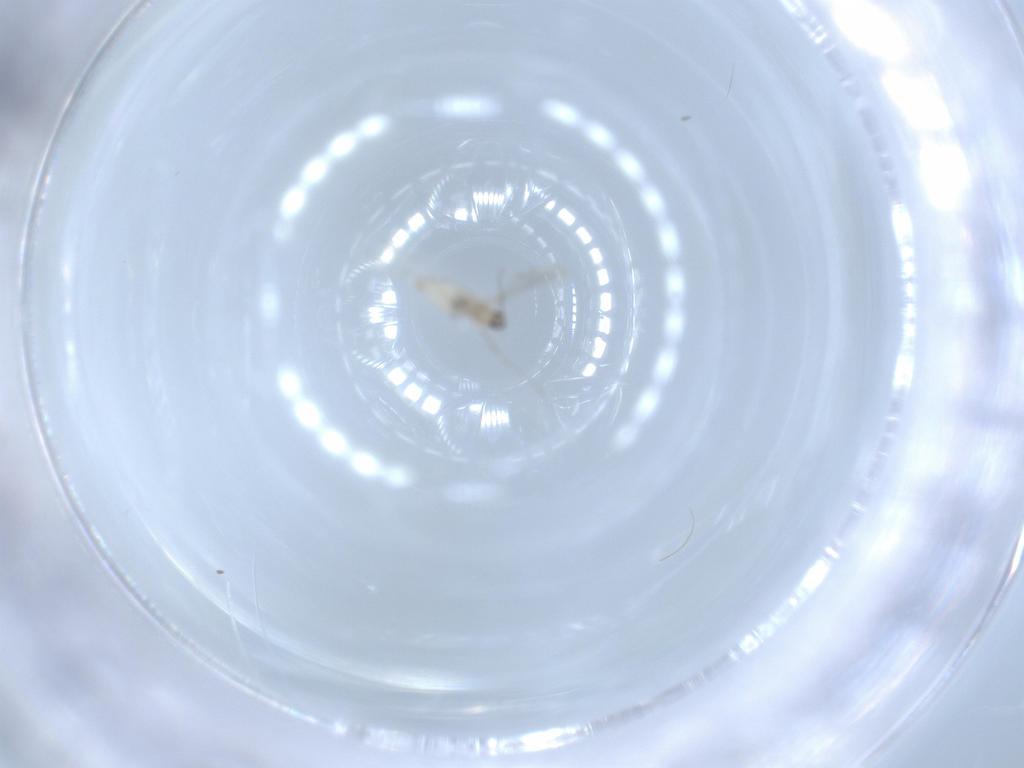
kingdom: Animalia
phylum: Arthropoda
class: Insecta
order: Diptera
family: Cecidomyiidae
